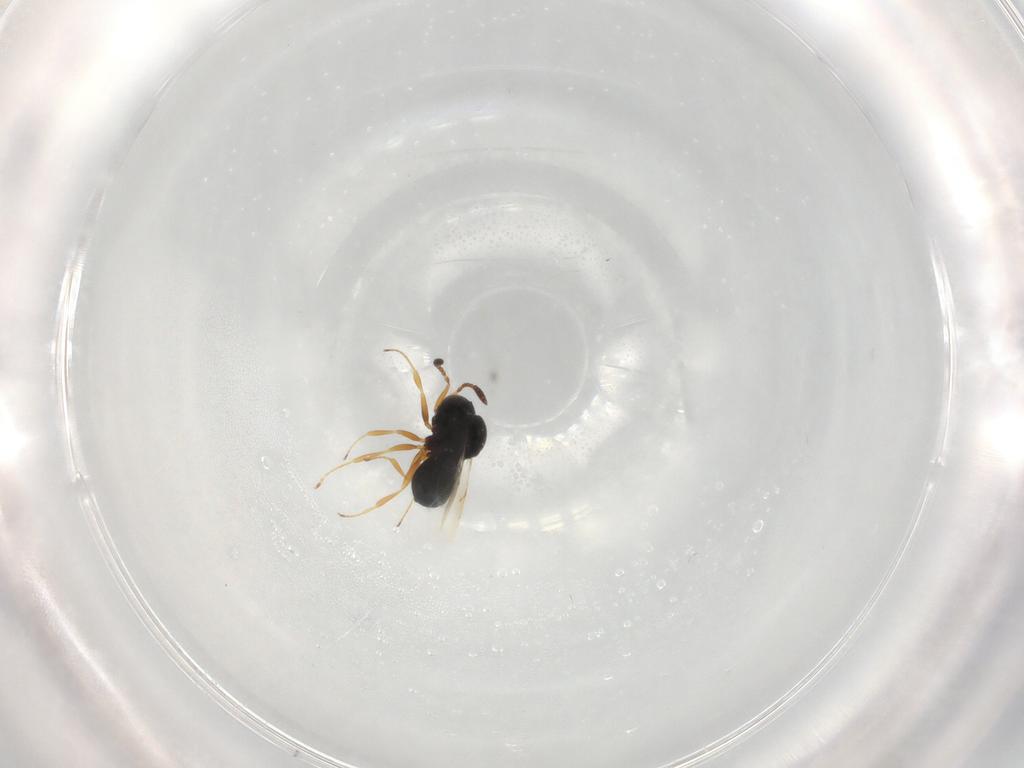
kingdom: Animalia
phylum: Arthropoda
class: Insecta
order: Hymenoptera
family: Scelionidae
